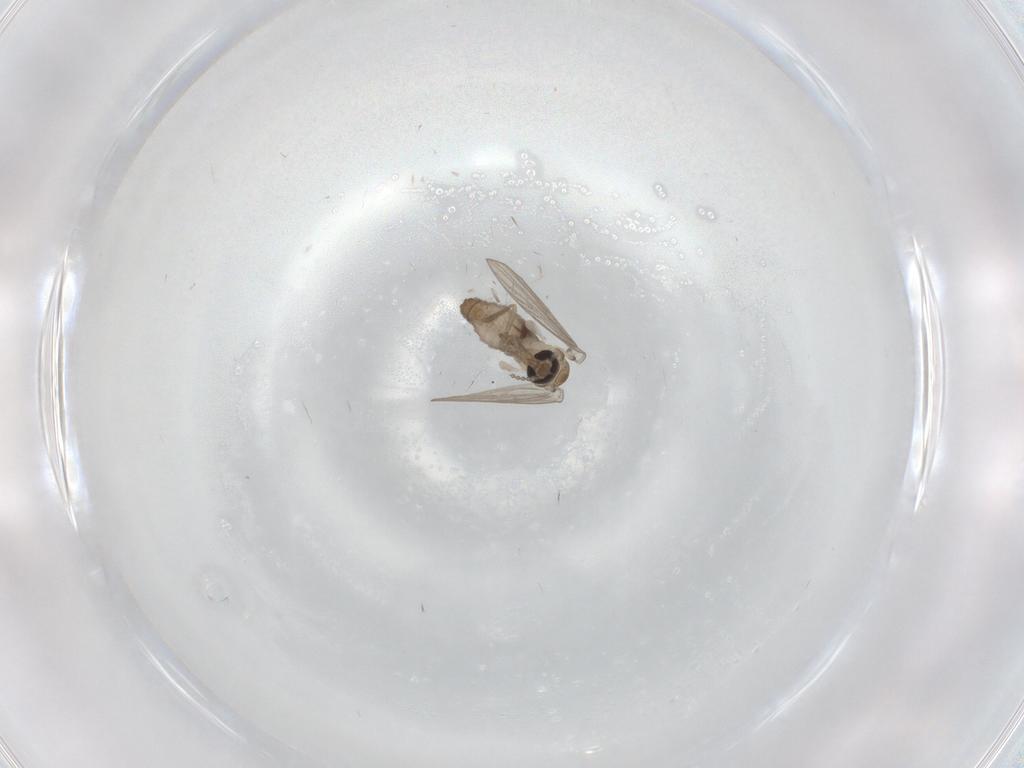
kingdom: Animalia
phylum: Arthropoda
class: Insecta
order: Diptera
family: Psychodidae
